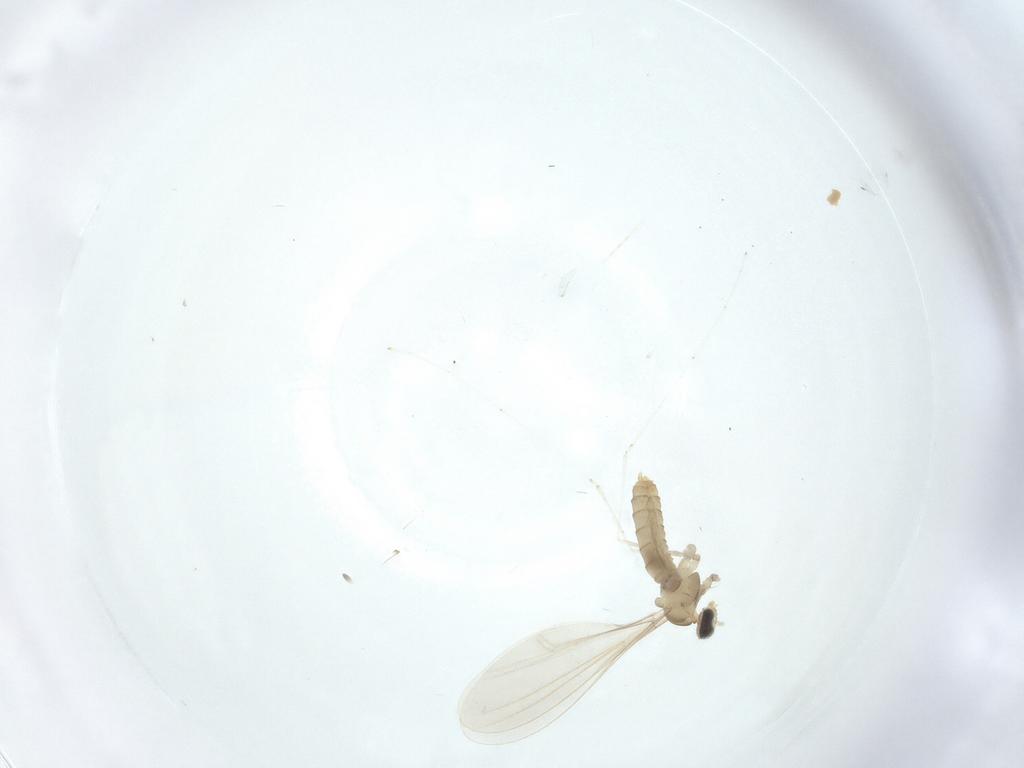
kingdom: Animalia
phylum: Arthropoda
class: Insecta
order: Diptera
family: Cecidomyiidae
